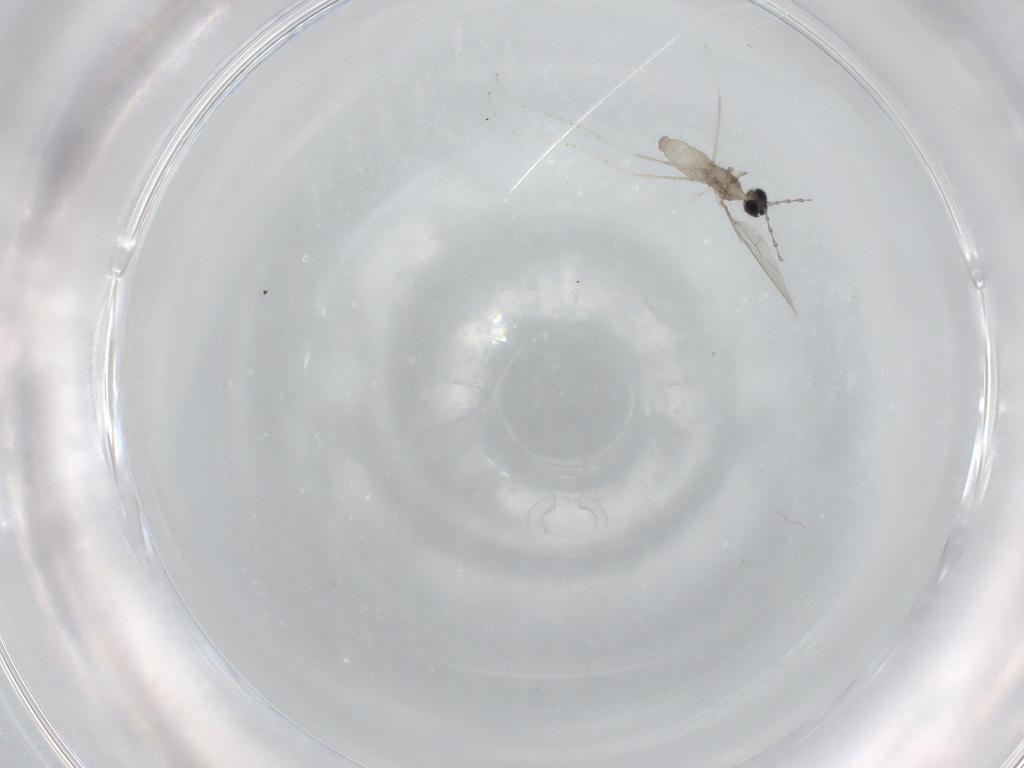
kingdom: Animalia
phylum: Arthropoda
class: Insecta
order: Diptera
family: Cecidomyiidae
